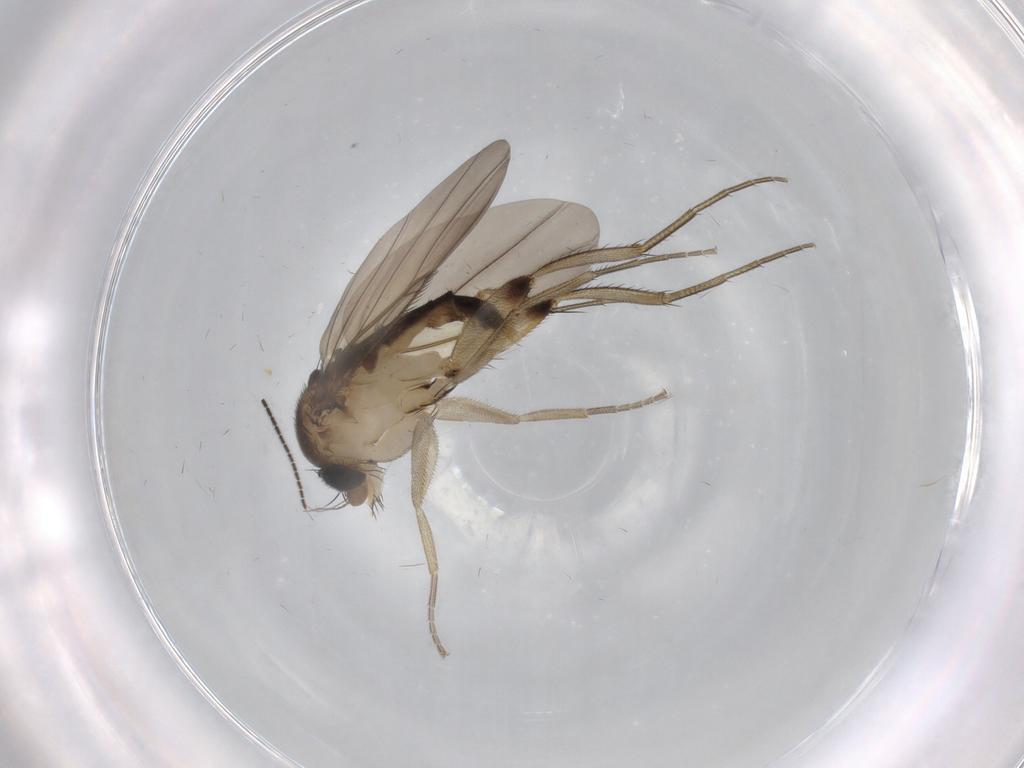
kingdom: Animalia
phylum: Arthropoda
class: Insecta
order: Diptera
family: Phoridae
